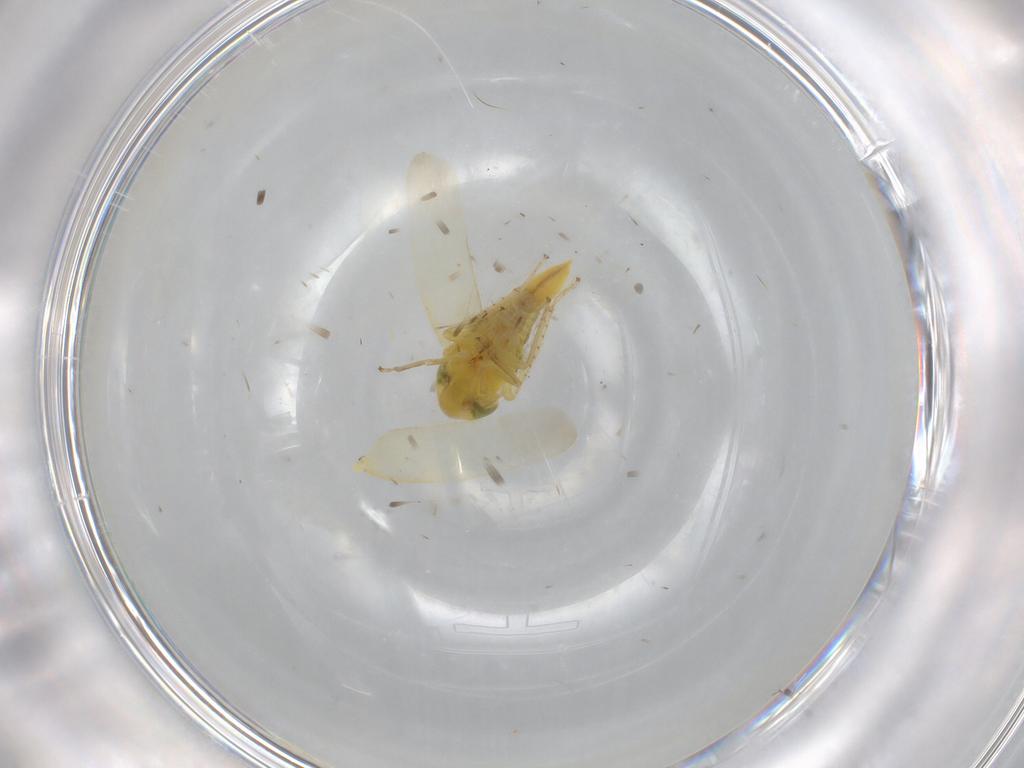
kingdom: Animalia
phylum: Arthropoda
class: Insecta
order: Hemiptera
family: Cicadellidae
